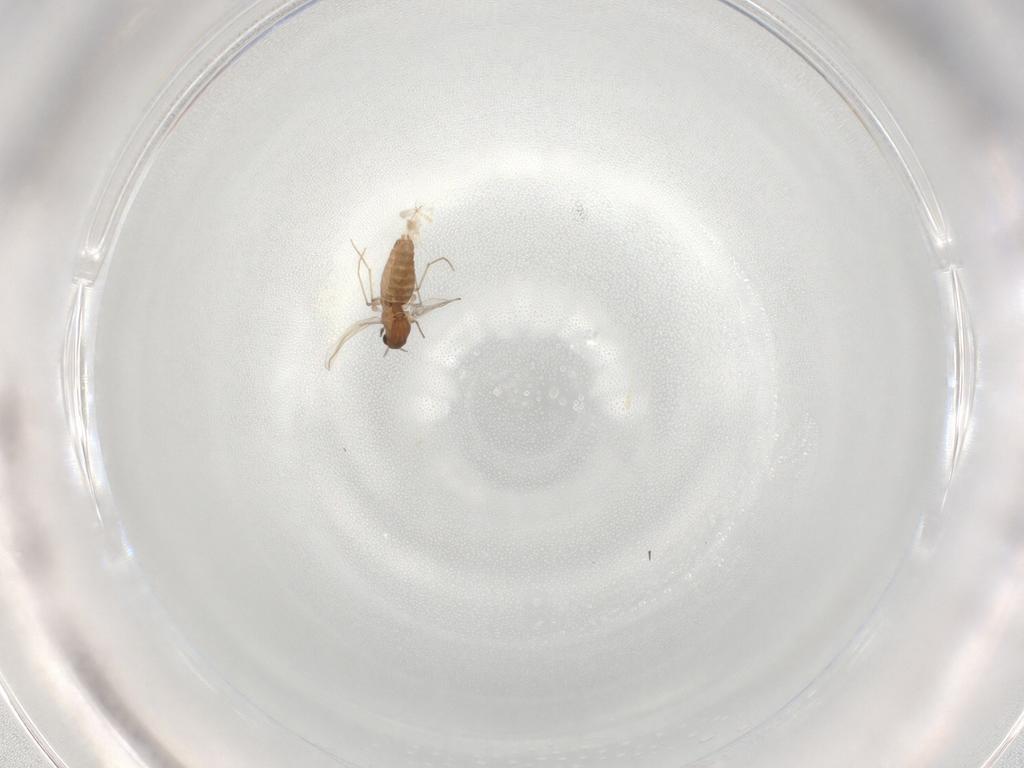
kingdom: Animalia
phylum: Arthropoda
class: Insecta
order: Diptera
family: Chironomidae
